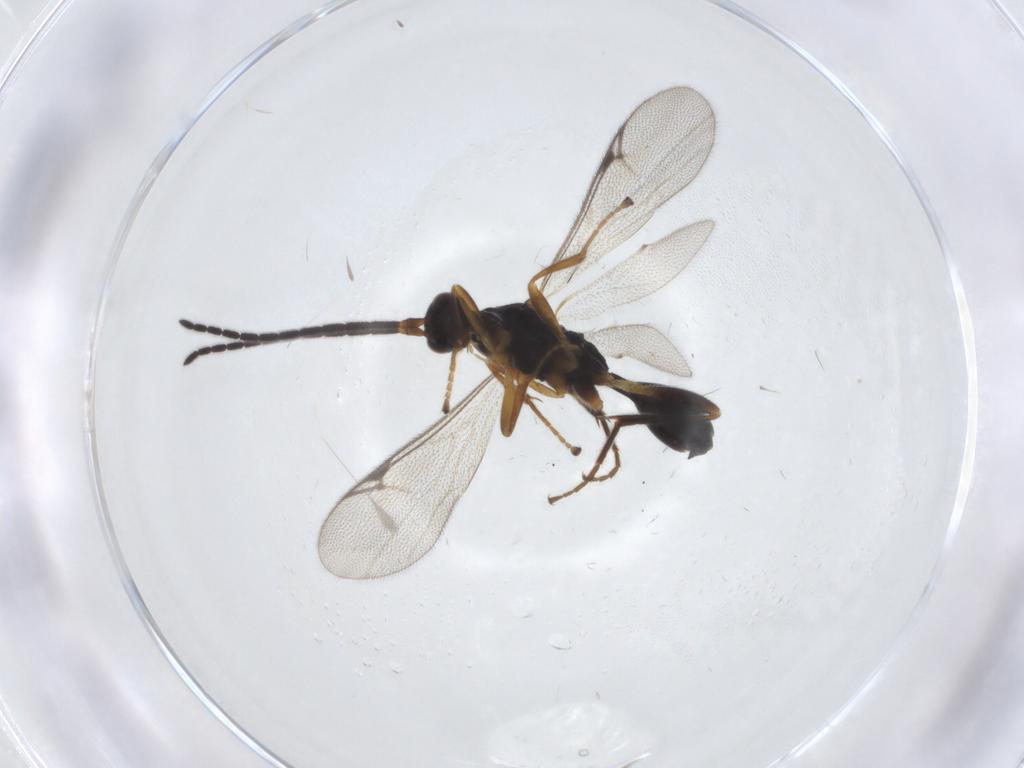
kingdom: Animalia
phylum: Arthropoda
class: Insecta
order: Hymenoptera
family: Proctotrupidae
